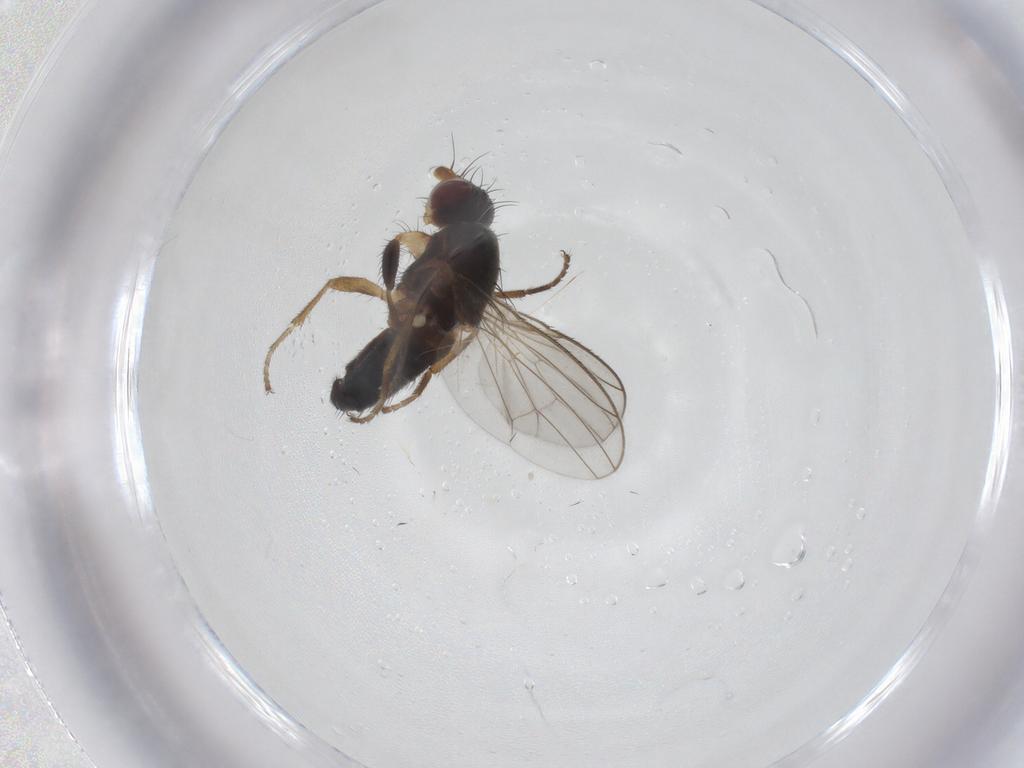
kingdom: Animalia
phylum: Arthropoda
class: Insecta
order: Diptera
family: Heleomyzidae
